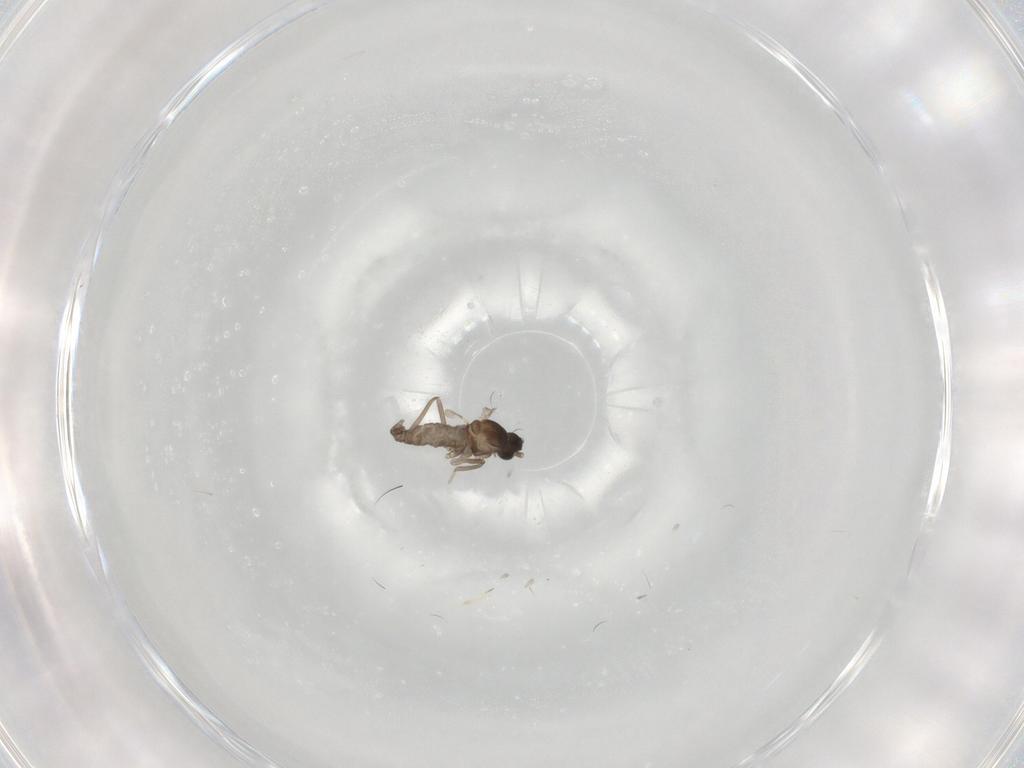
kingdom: Animalia
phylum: Arthropoda
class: Insecta
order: Diptera
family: Cecidomyiidae
